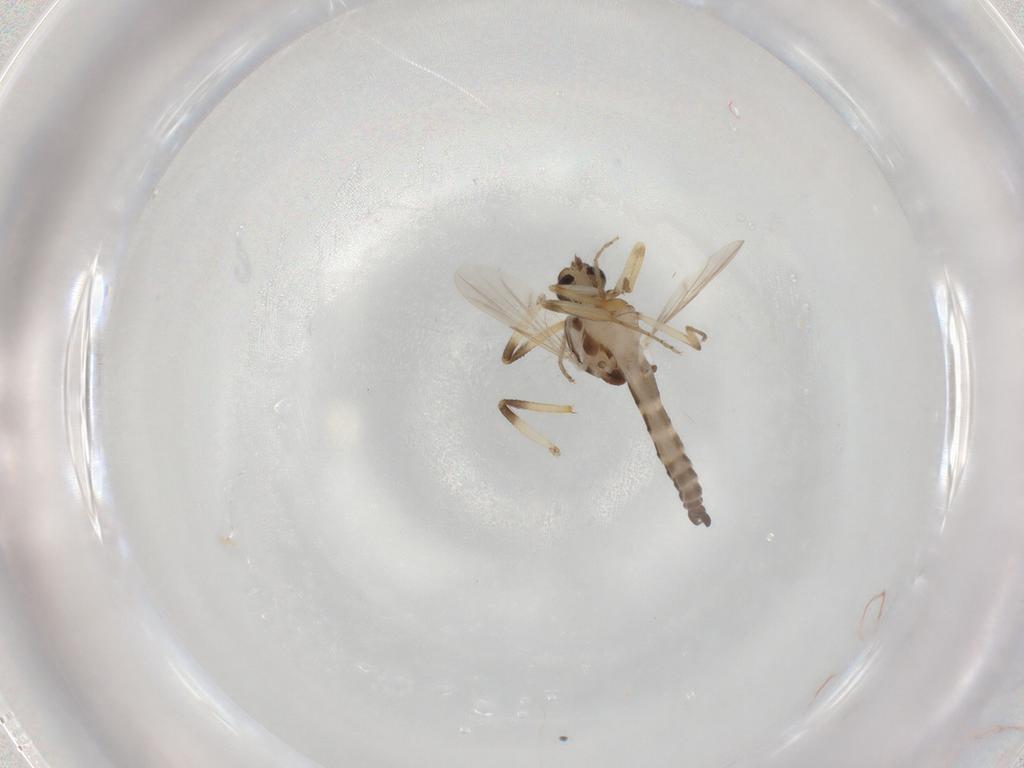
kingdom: Animalia
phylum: Arthropoda
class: Insecta
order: Diptera
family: Ceratopogonidae
